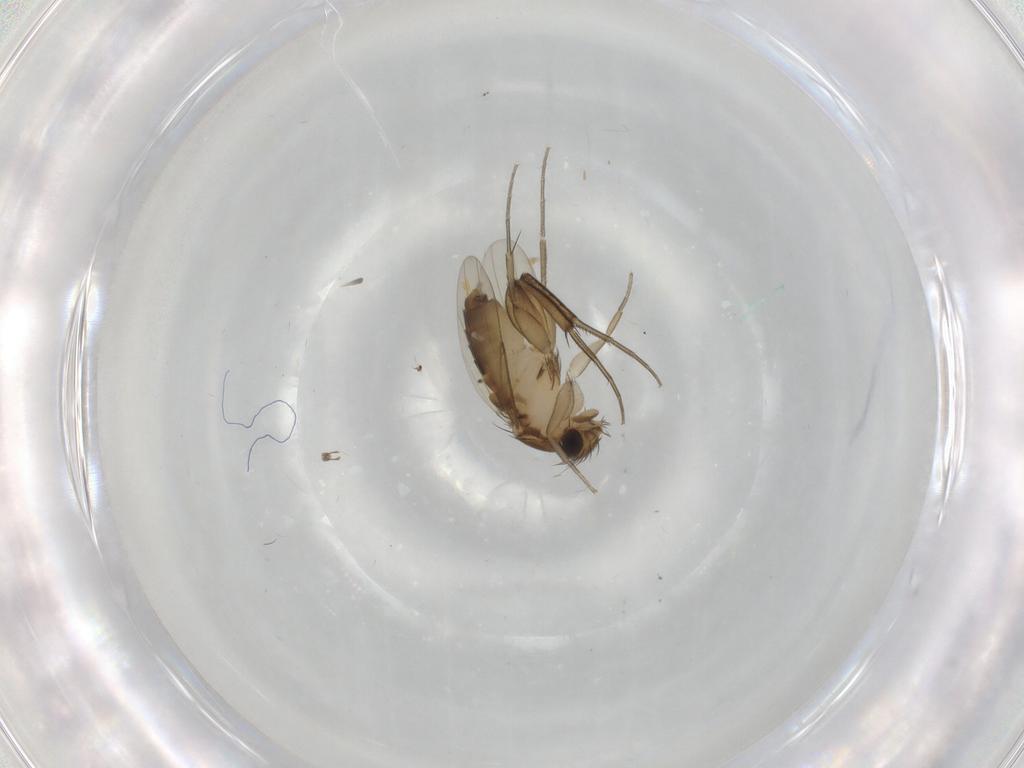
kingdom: Animalia
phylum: Arthropoda
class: Insecta
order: Diptera
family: Phoridae
